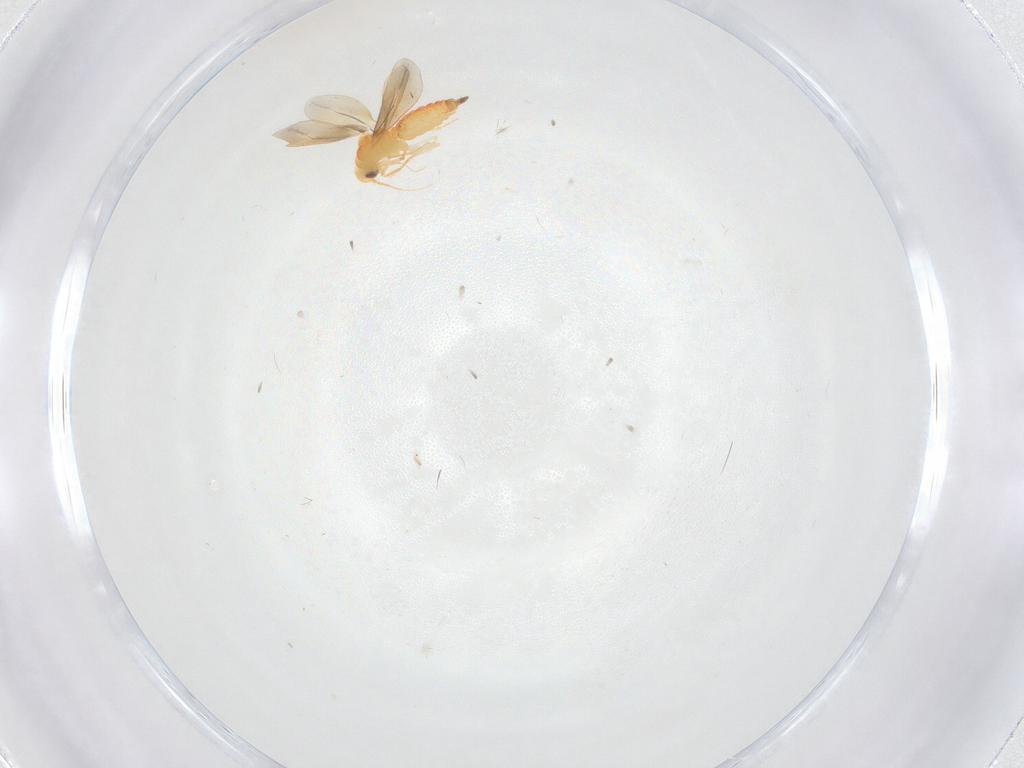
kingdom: Animalia
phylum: Arthropoda
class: Insecta
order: Hemiptera
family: Aleyrodidae
